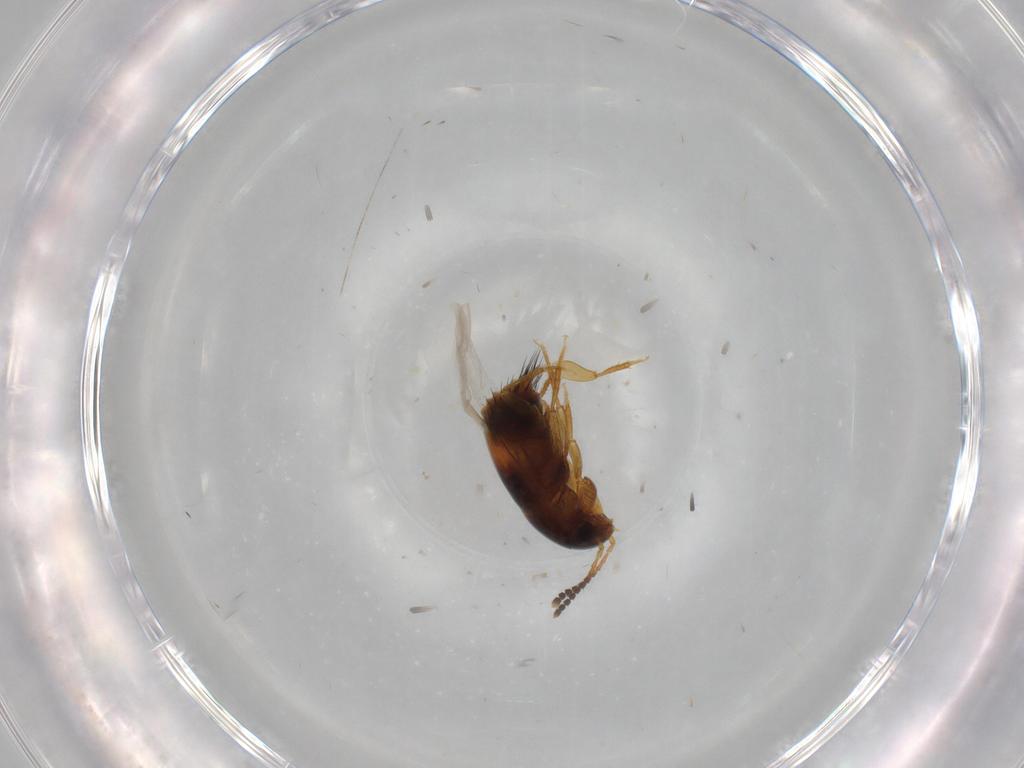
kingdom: Animalia
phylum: Arthropoda
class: Insecta
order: Coleoptera
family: Staphylinidae
